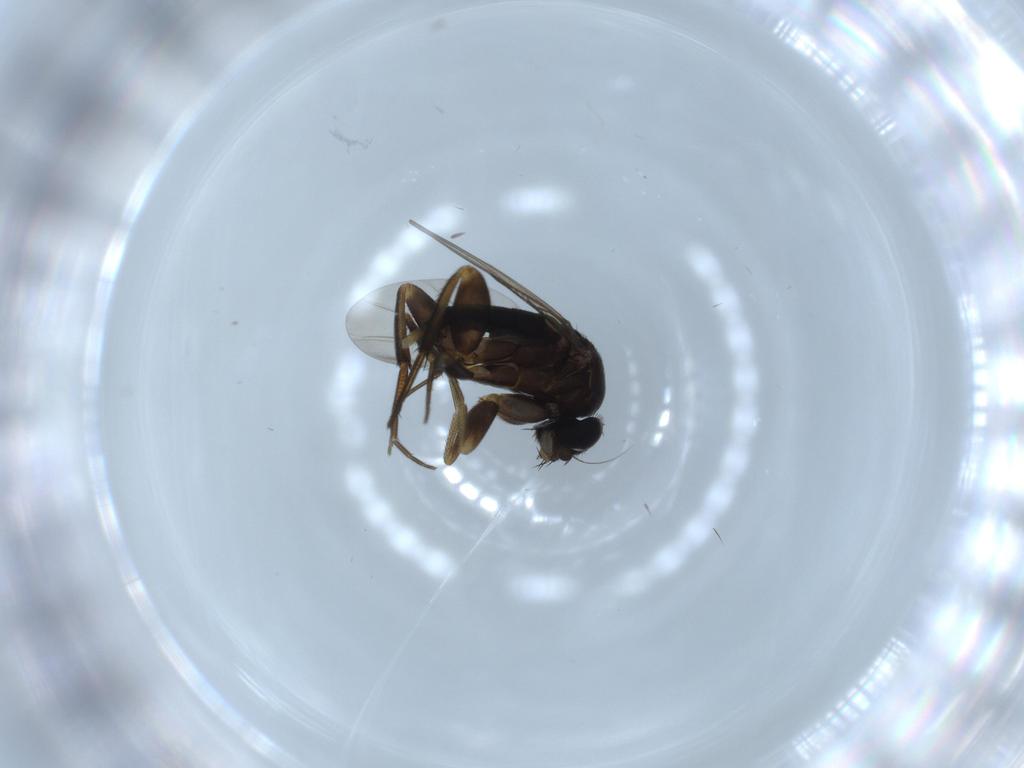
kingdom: Animalia
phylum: Arthropoda
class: Insecta
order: Diptera
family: Phoridae
